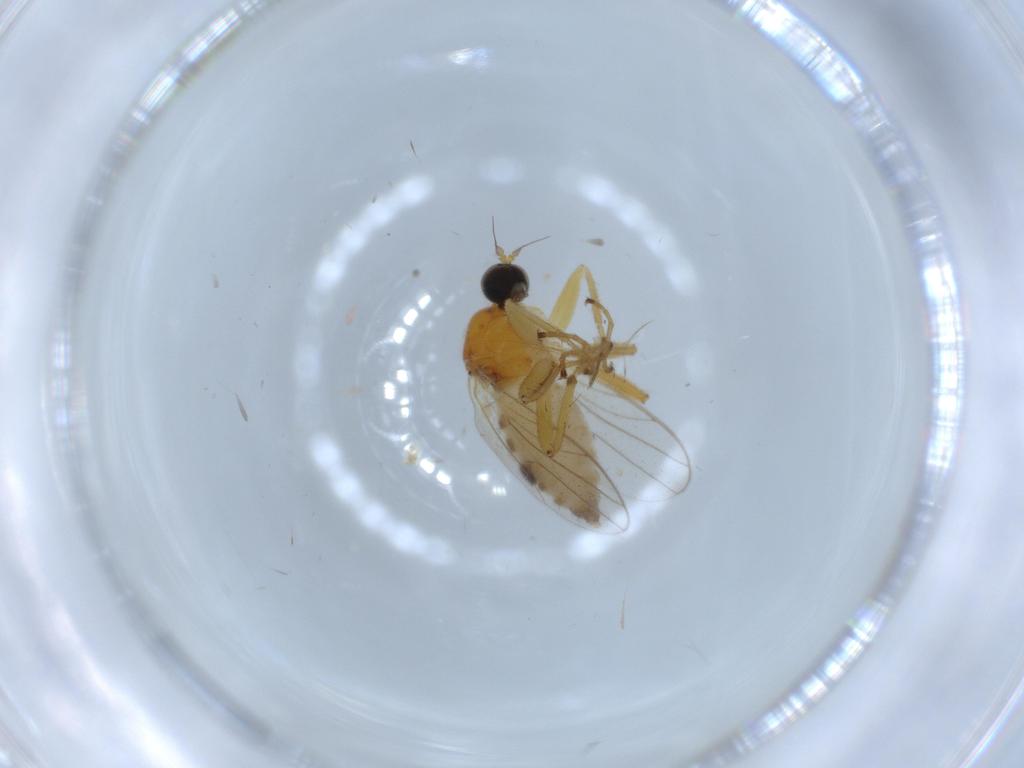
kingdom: Animalia
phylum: Arthropoda
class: Insecta
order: Diptera
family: Hybotidae
